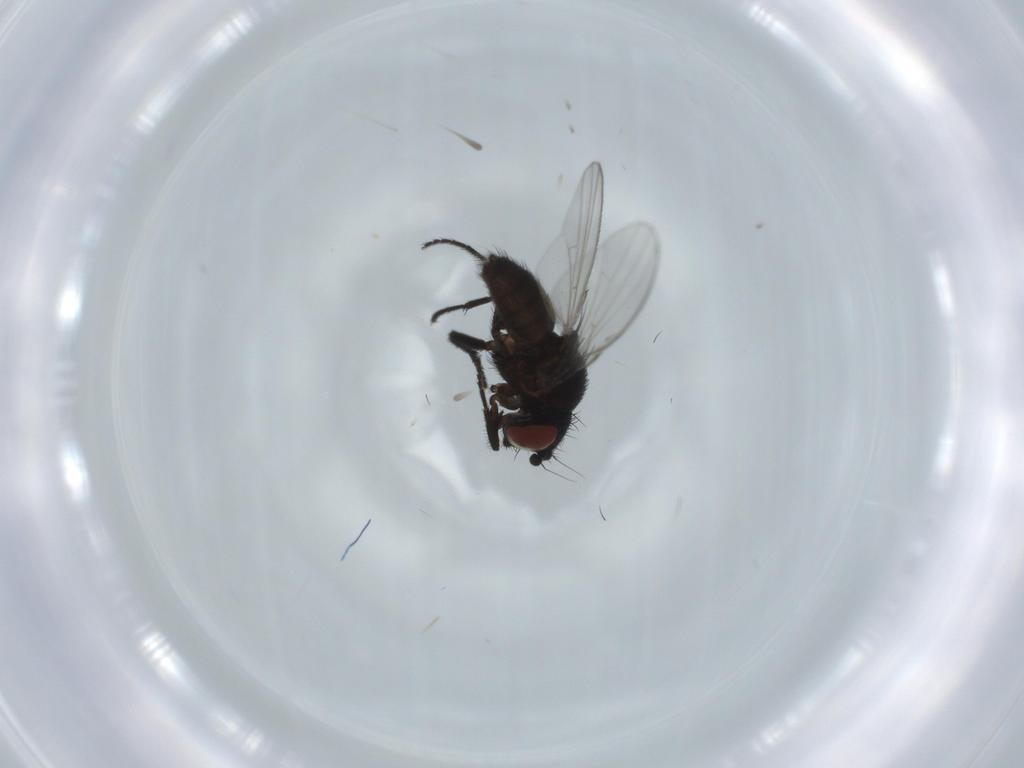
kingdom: Animalia
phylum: Arthropoda
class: Insecta
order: Diptera
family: Milichiidae
